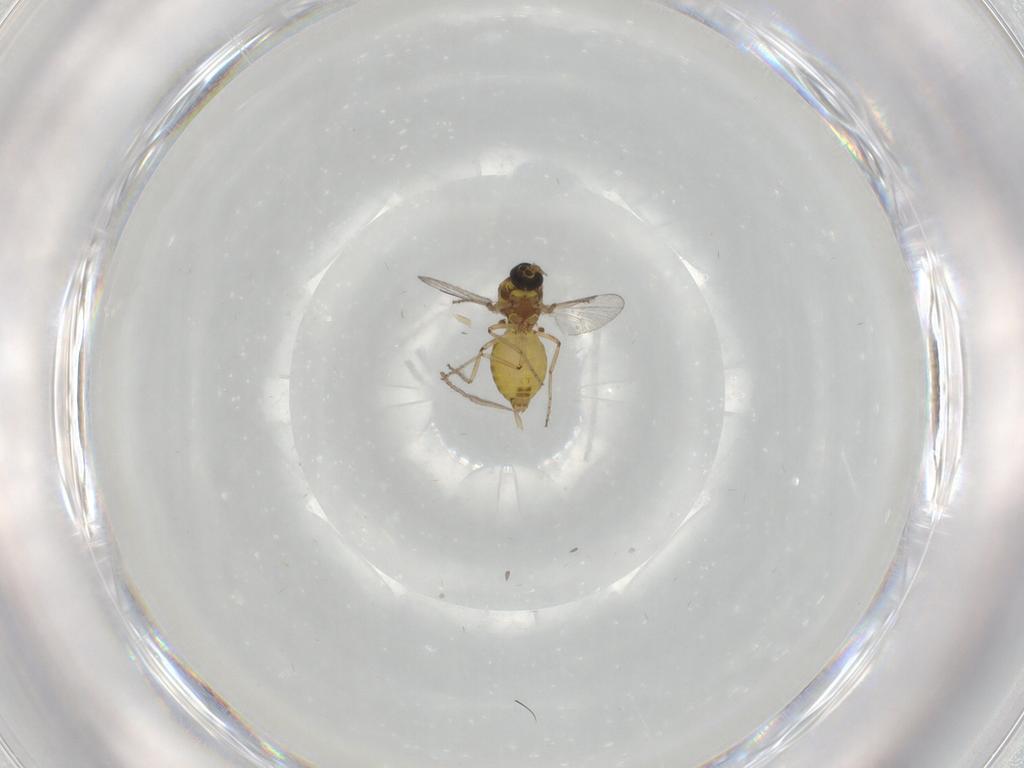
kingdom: Animalia
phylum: Arthropoda
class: Insecta
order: Diptera
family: Ceratopogonidae
